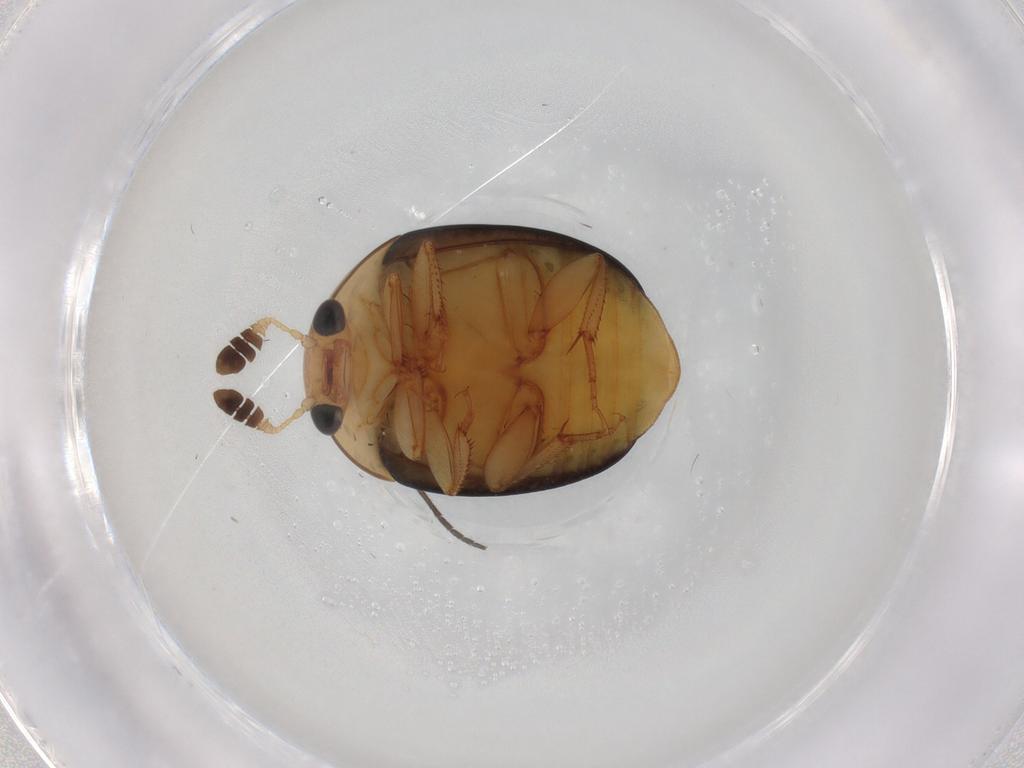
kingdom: Animalia
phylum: Arthropoda
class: Insecta
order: Coleoptera
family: Nitidulidae
